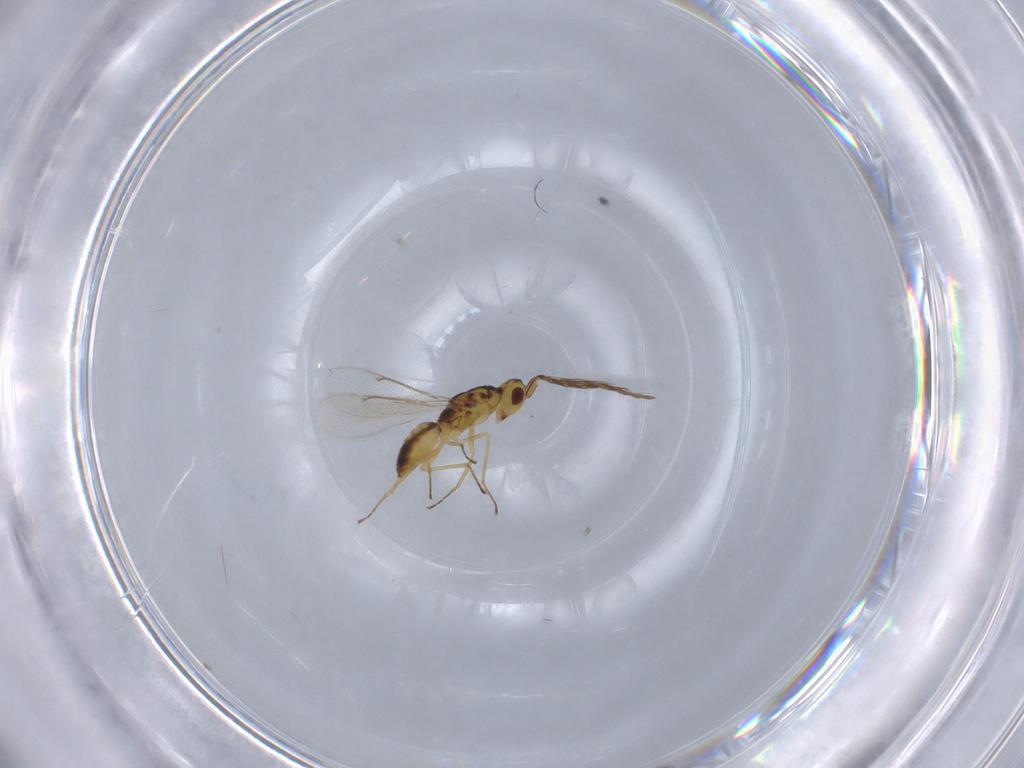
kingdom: Animalia
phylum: Arthropoda
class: Insecta
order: Hymenoptera
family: Eulophidae
